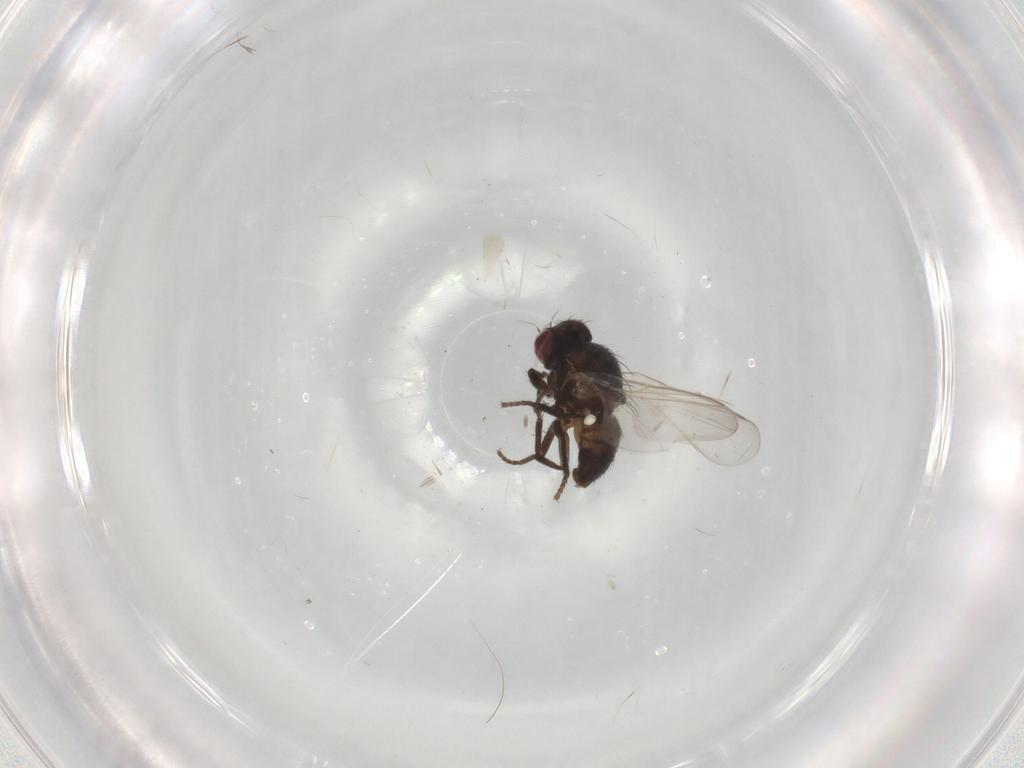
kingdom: Animalia
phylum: Arthropoda
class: Insecta
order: Diptera
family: Agromyzidae
